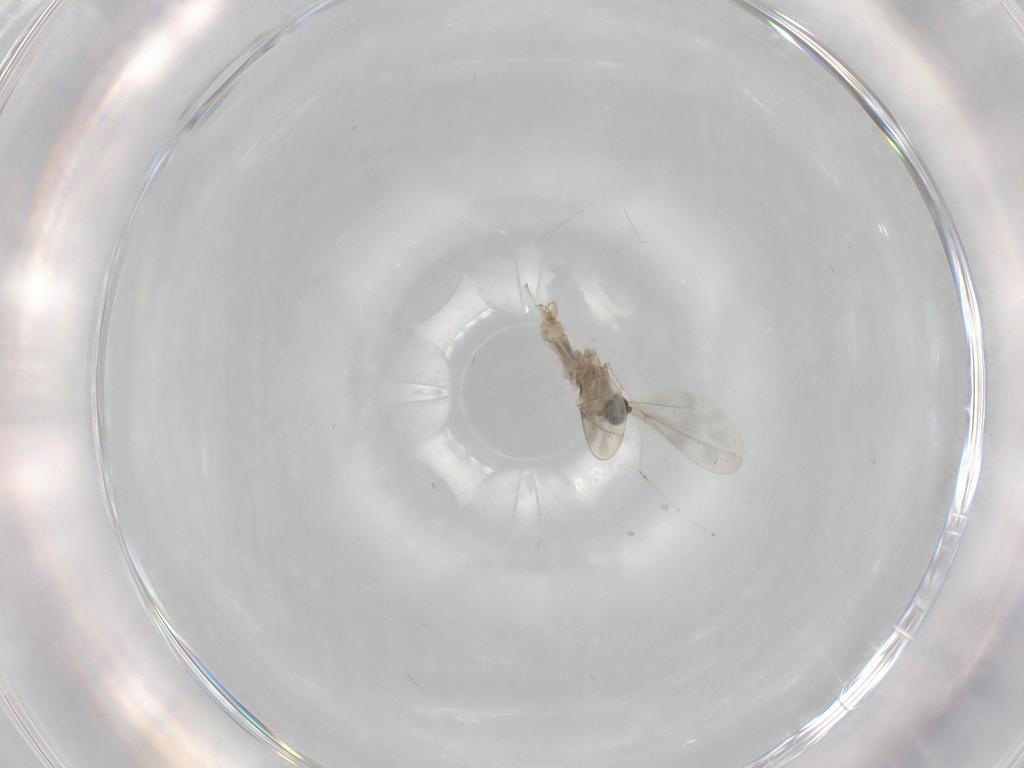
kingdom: Animalia
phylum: Arthropoda
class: Insecta
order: Diptera
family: Cecidomyiidae
